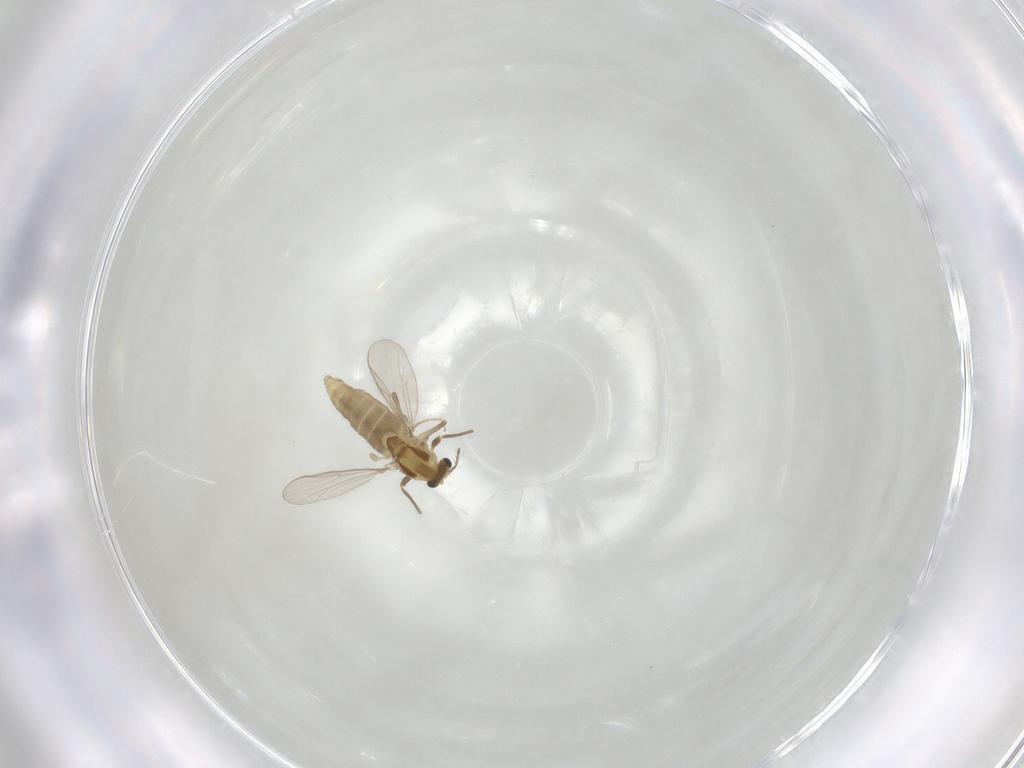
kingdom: Animalia
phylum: Arthropoda
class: Insecta
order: Diptera
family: Chironomidae
